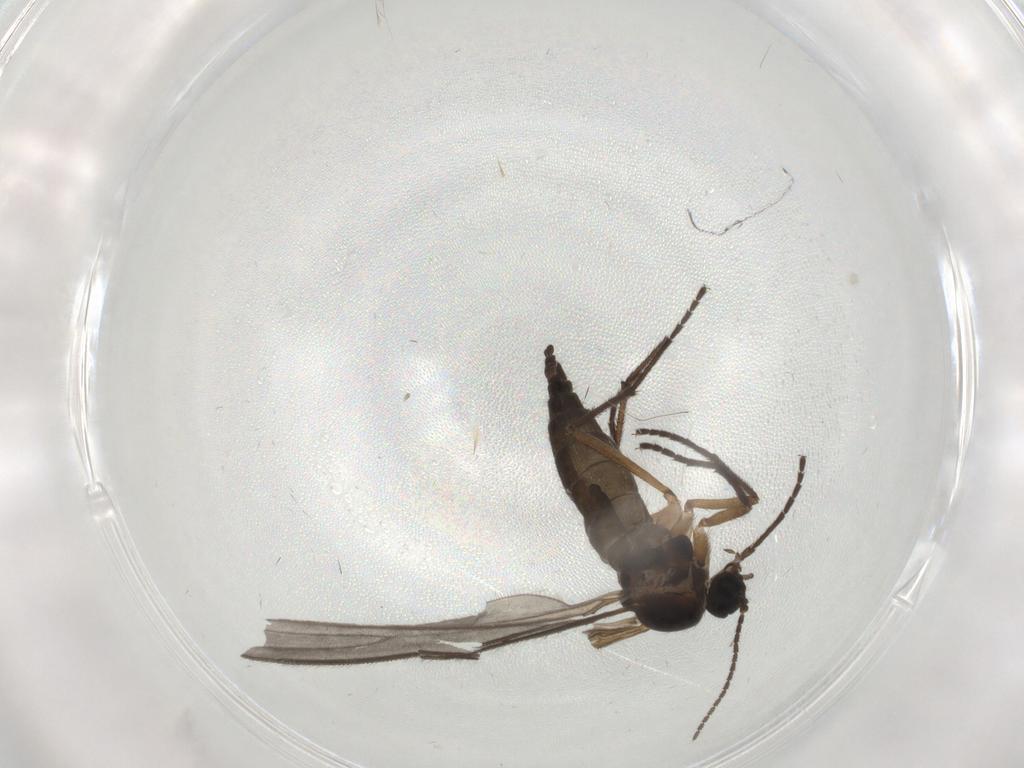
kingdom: Animalia
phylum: Arthropoda
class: Insecta
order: Diptera
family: Sciaridae
